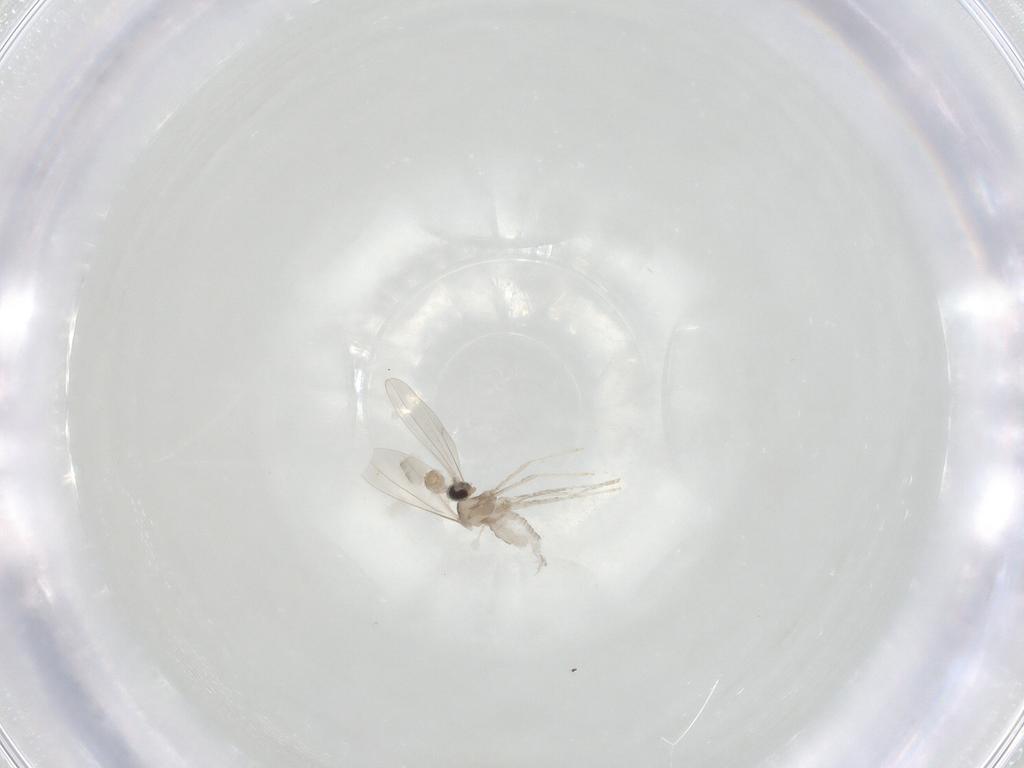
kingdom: Animalia
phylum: Arthropoda
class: Insecta
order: Diptera
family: Cecidomyiidae
